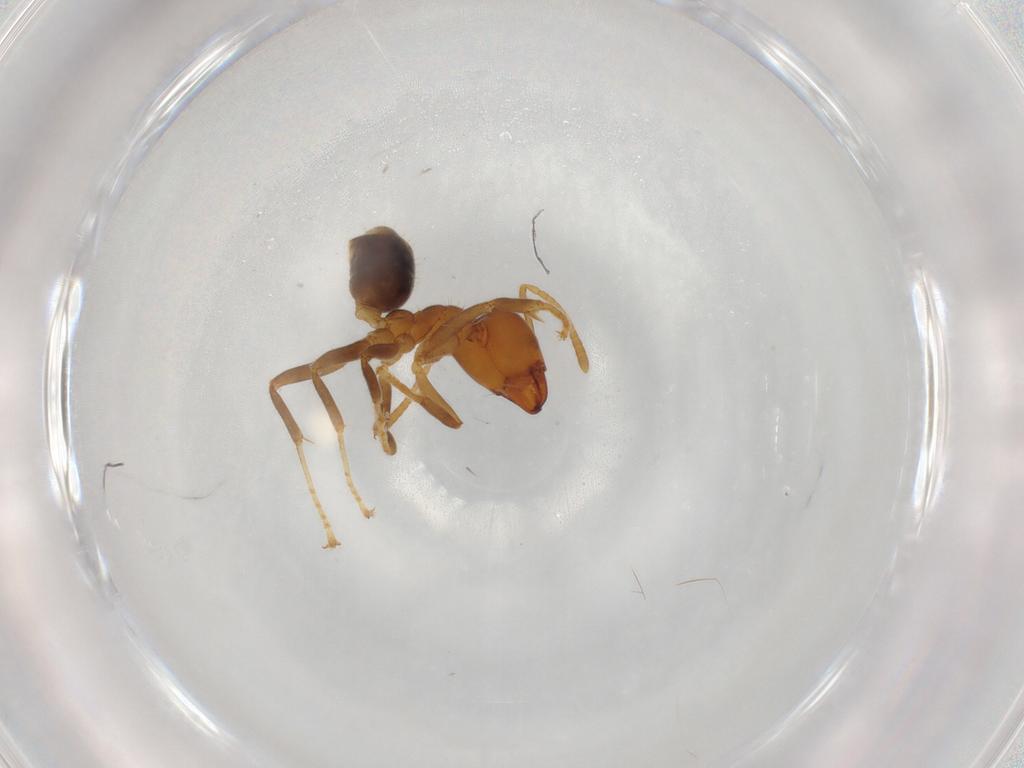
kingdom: Animalia
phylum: Arthropoda
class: Insecta
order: Hymenoptera
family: Formicidae
